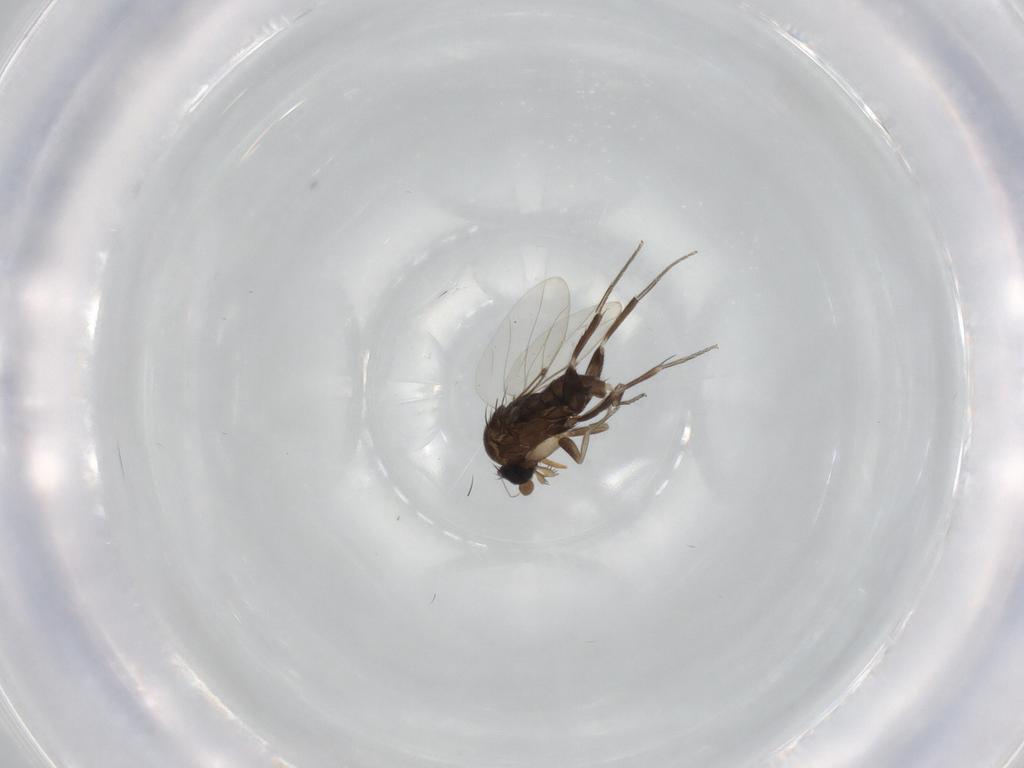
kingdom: Animalia
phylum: Arthropoda
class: Insecta
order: Diptera
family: Phoridae
